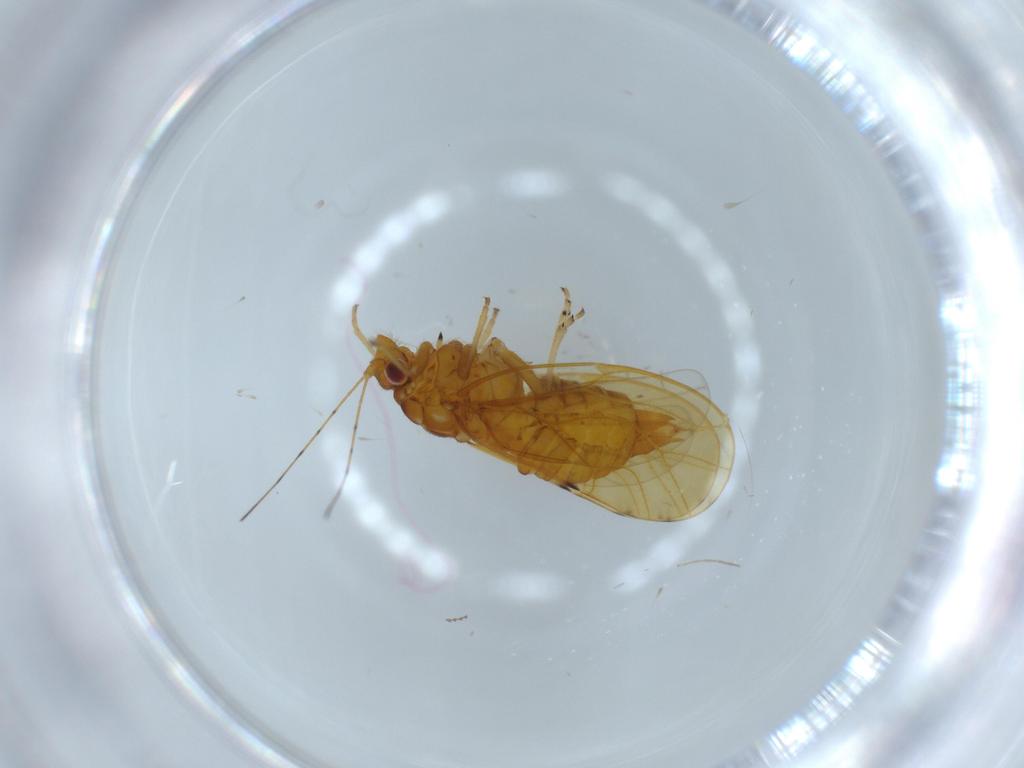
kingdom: Animalia
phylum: Arthropoda
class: Insecta
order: Hemiptera
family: Psylloidea_incertae_sedis
